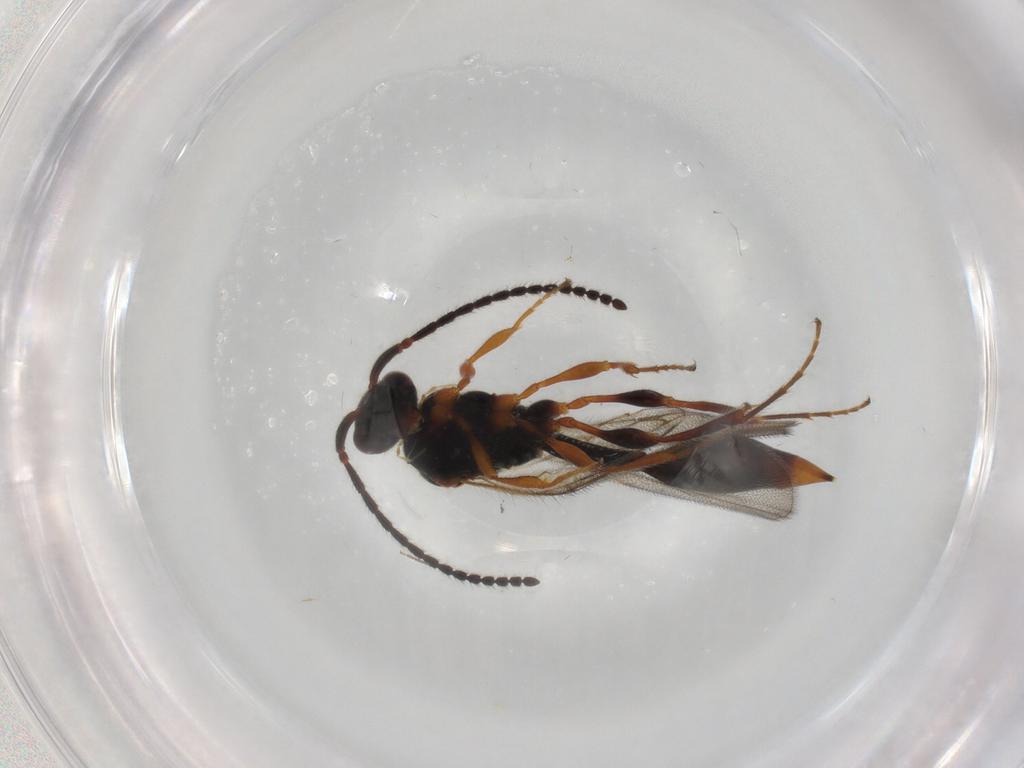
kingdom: Animalia
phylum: Arthropoda
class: Insecta
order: Hymenoptera
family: Diapriidae
